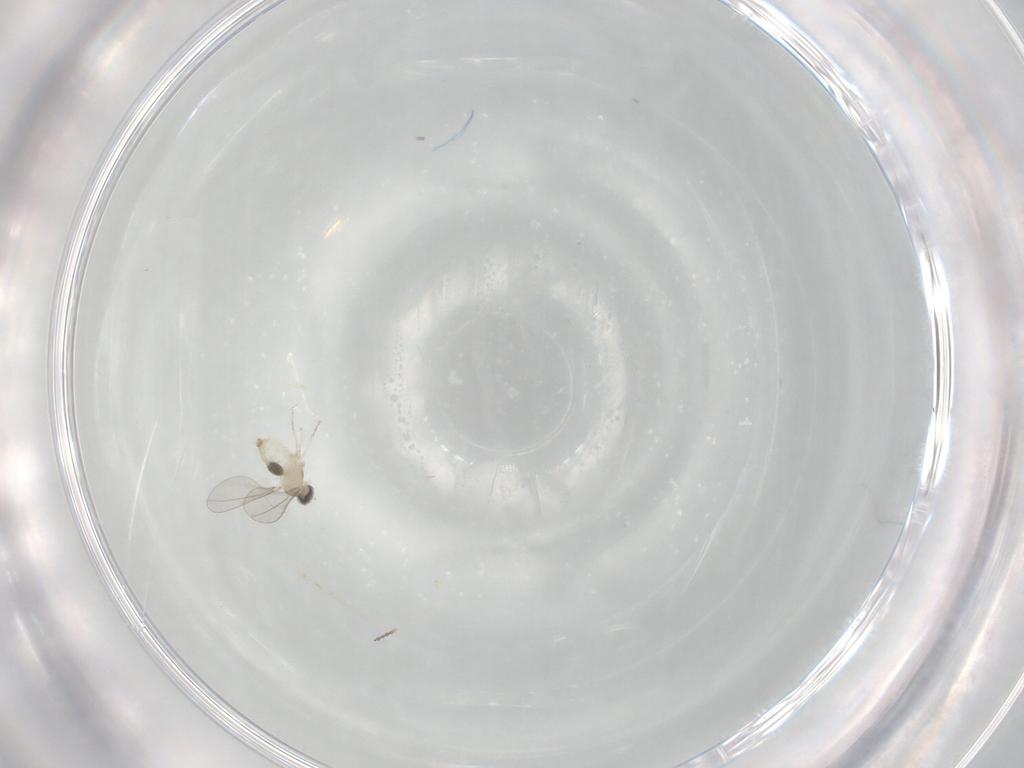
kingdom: Animalia
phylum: Arthropoda
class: Insecta
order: Diptera
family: Cecidomyiidae
